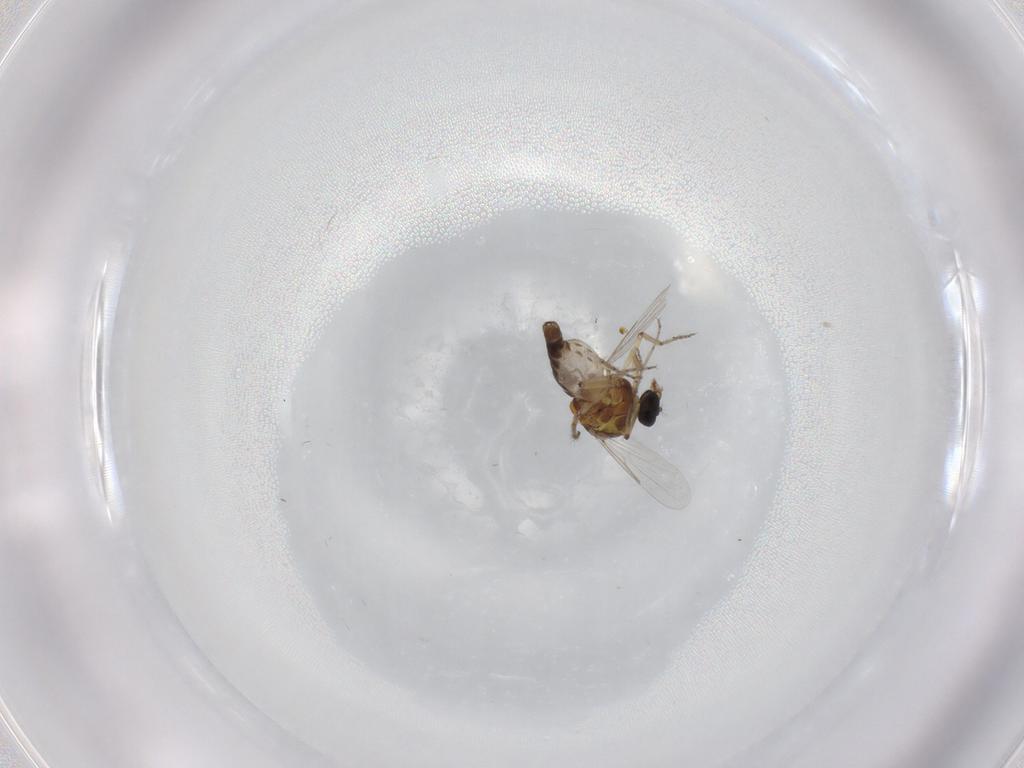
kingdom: Animalia
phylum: Arthropoda
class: Insecta
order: Diptera
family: Ceratopogonidae
